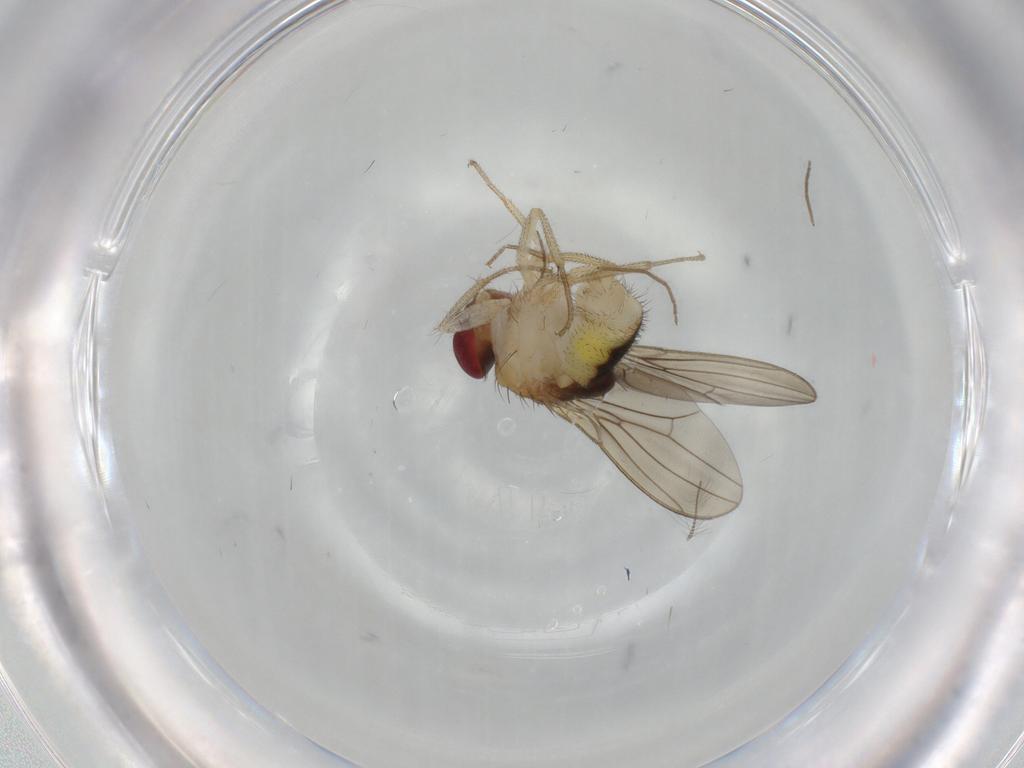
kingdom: Animalia
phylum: Arthropoda
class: Insecta
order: Diptera
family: Drosophilidae
